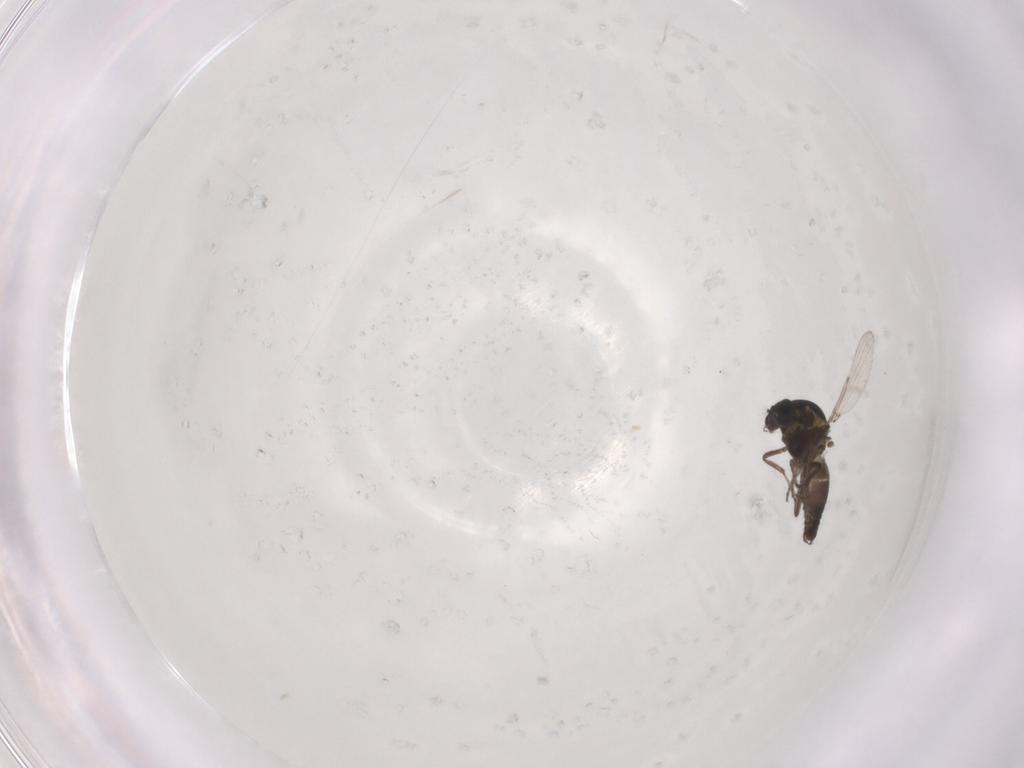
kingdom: Animalia
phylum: Arthropoda
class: Insecta
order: Diptera
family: Ceratopogonidae
